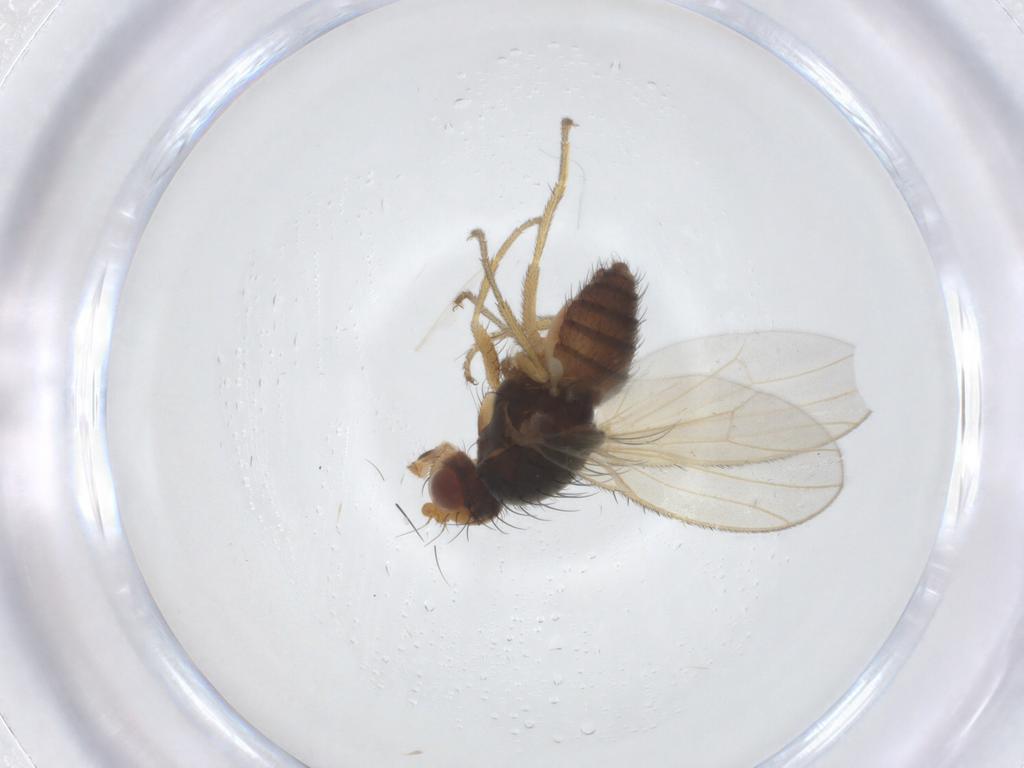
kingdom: Animalia
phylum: Arthropoda
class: Insecta
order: Diptera
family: Heleomyzidae
